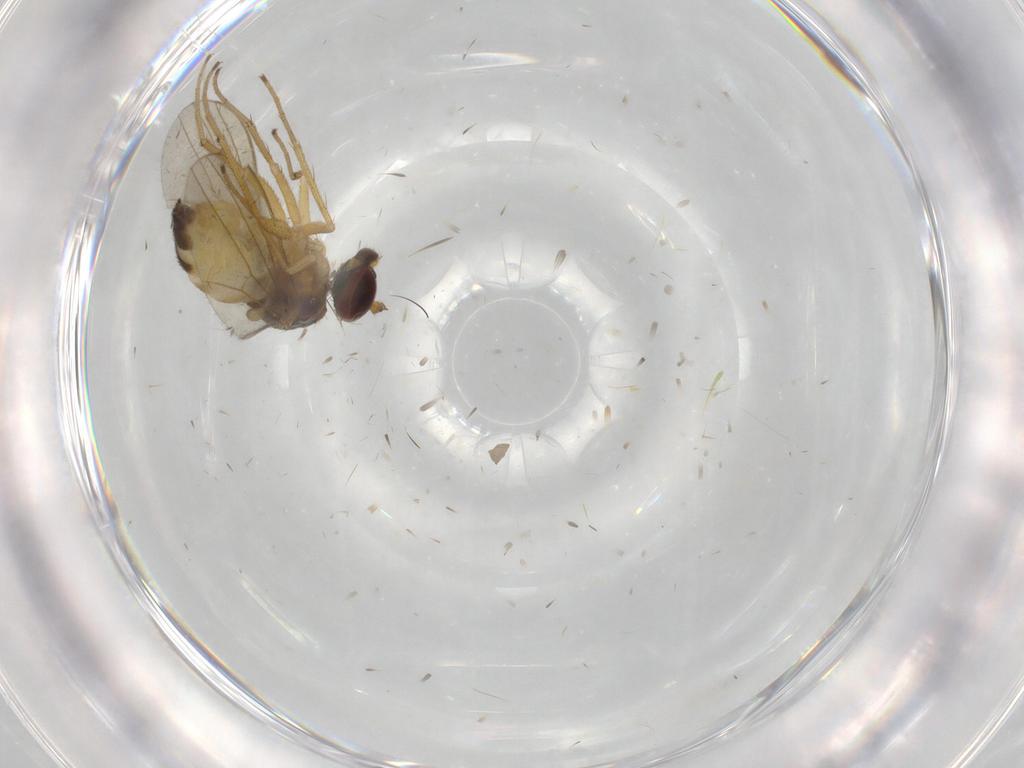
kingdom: Animalia
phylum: Arthropoda
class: Insecta
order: Diptera
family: Dolichopodidae
